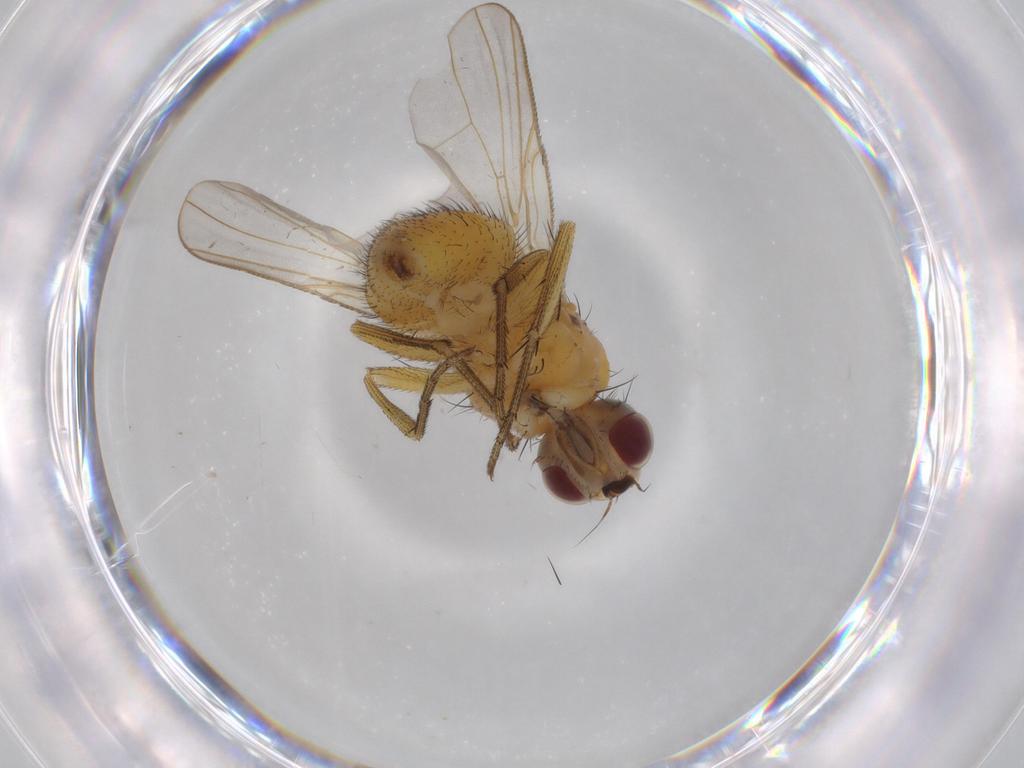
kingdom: Animalia
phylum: Arthropoda
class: Insecta
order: Diptera
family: Muscidae
